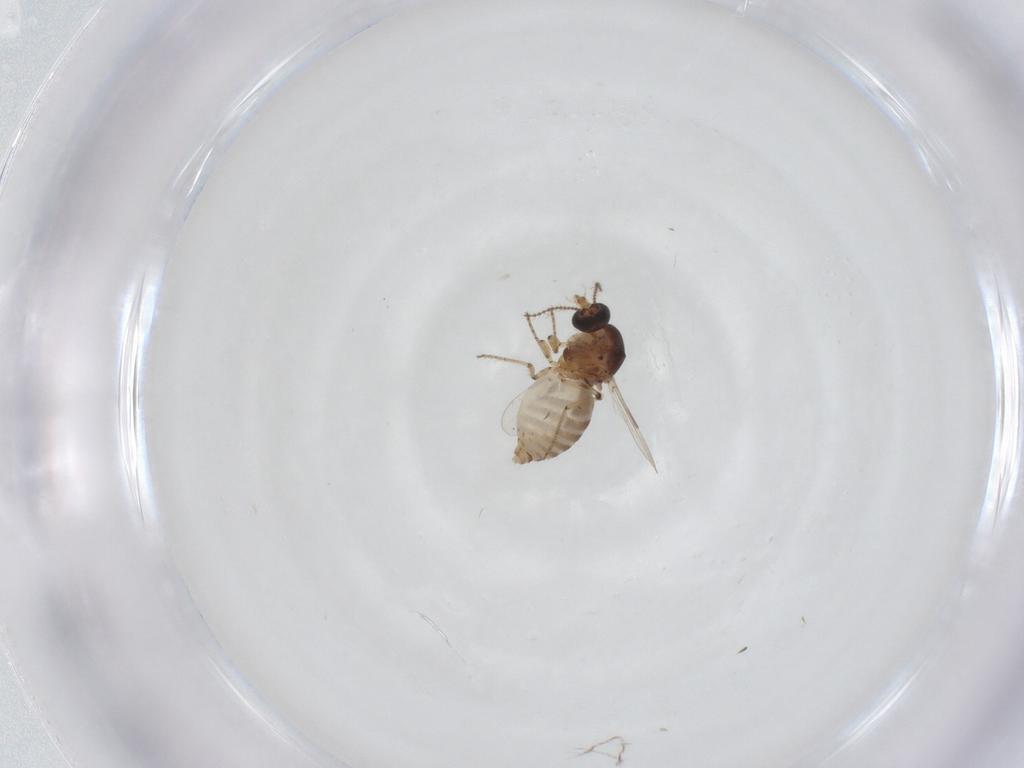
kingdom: Animalia
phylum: Arthropoda
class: Insecta
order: Diptera
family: Ceratopogonidae
